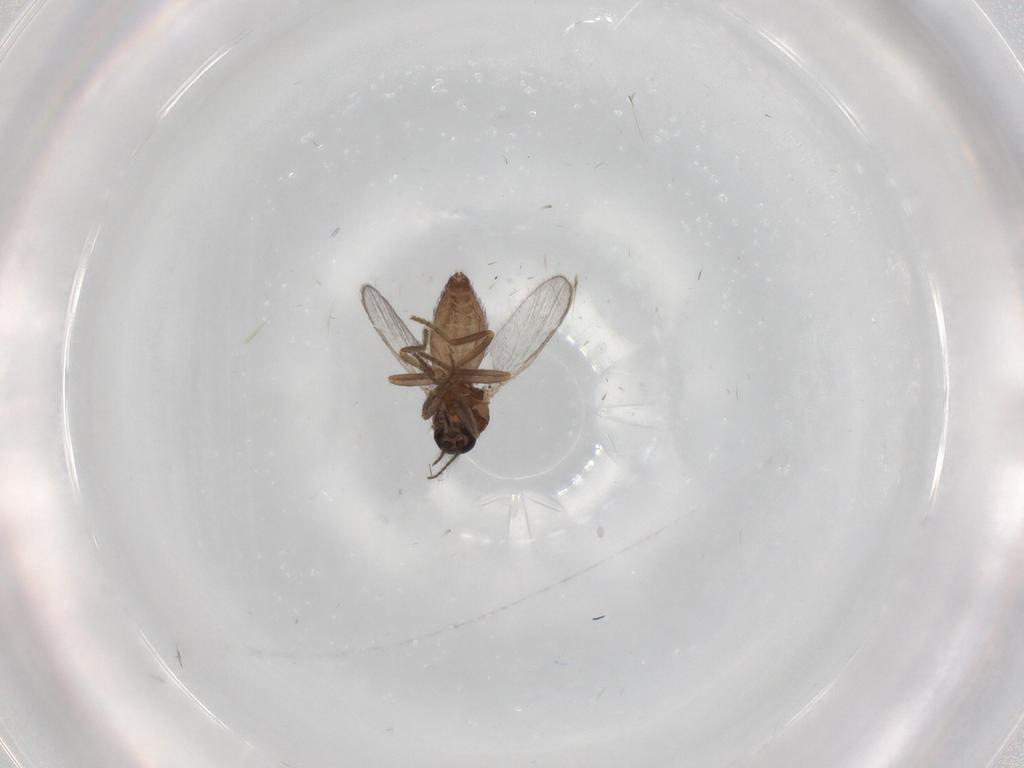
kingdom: Animalia
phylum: Arthropoda
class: Insecta
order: Diptera
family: Ceratopogonidae
